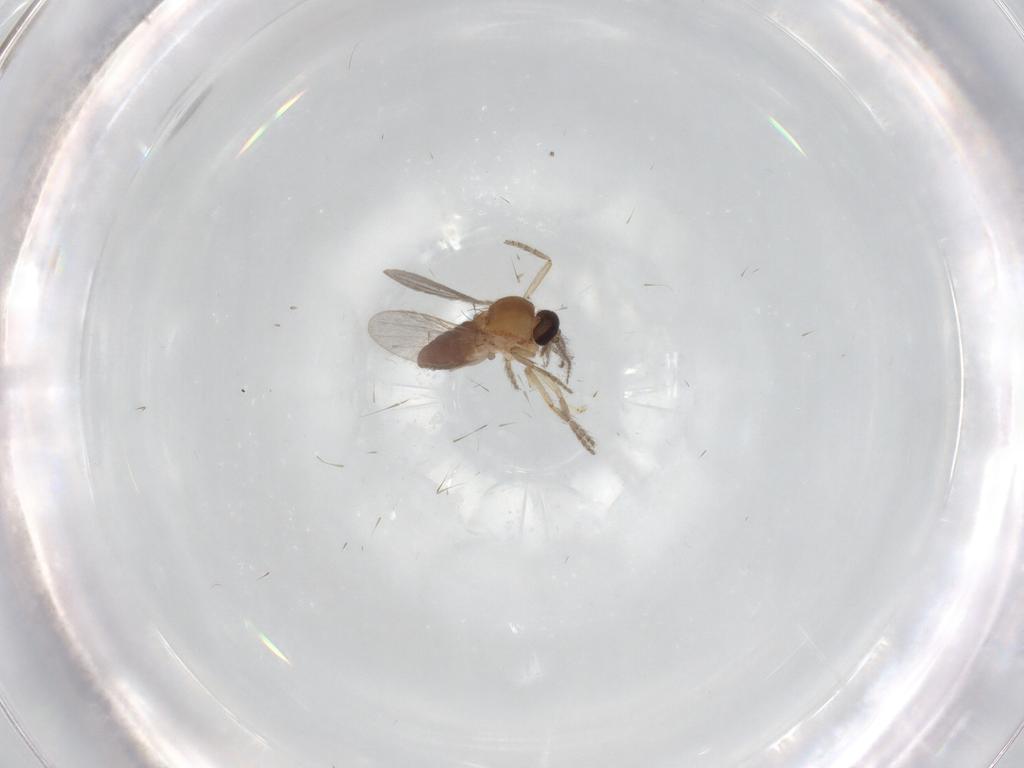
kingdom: Animalia
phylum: Arthropoda
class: Insecta
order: Diptera
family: Ceratopogonidae
